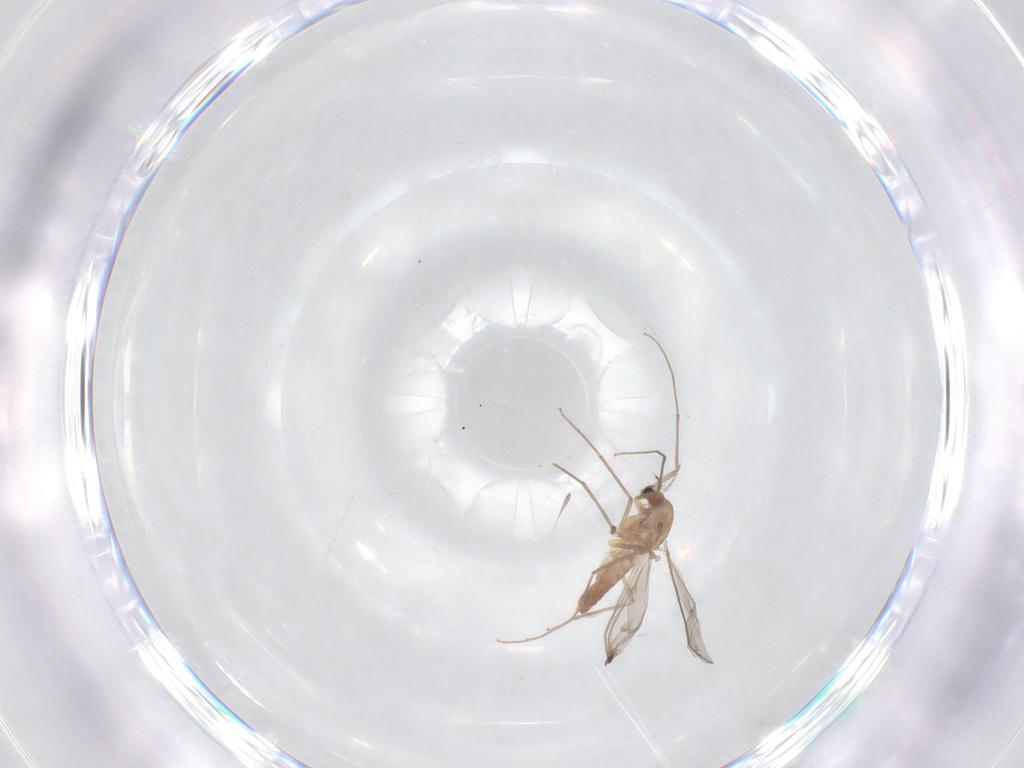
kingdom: Animalia
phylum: Arthropoda
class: Insecta
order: Diptera
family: Chironomidae
